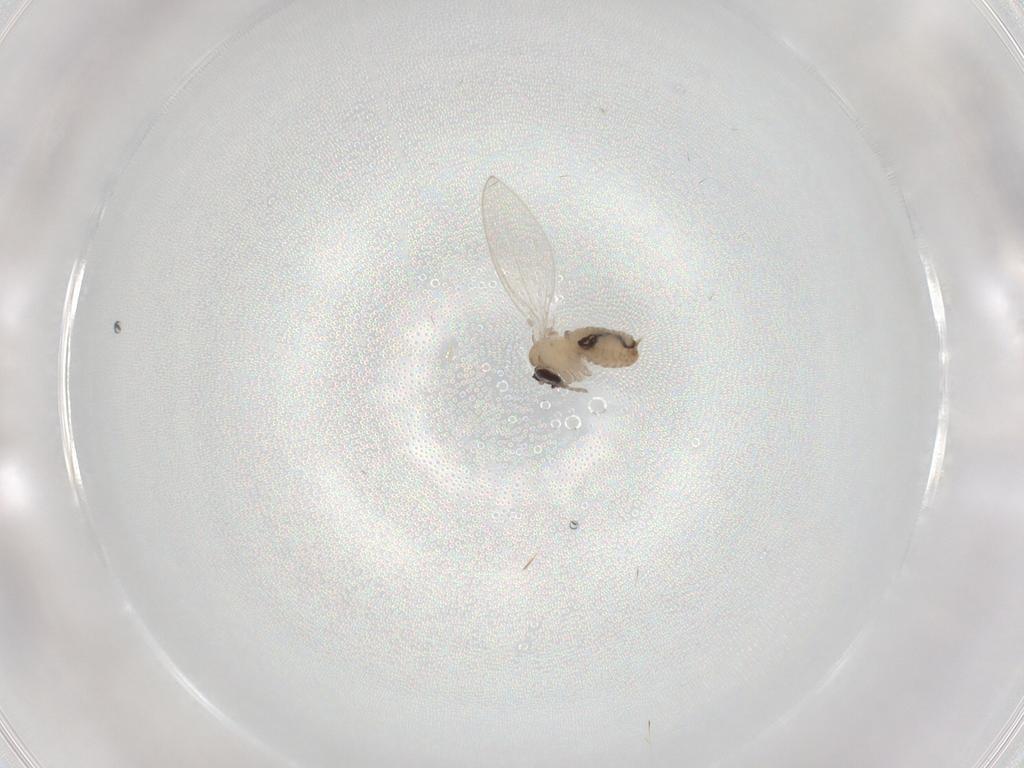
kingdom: Animalia
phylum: Arthropoda
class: Insecta
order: Diptera
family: Psychodidae
